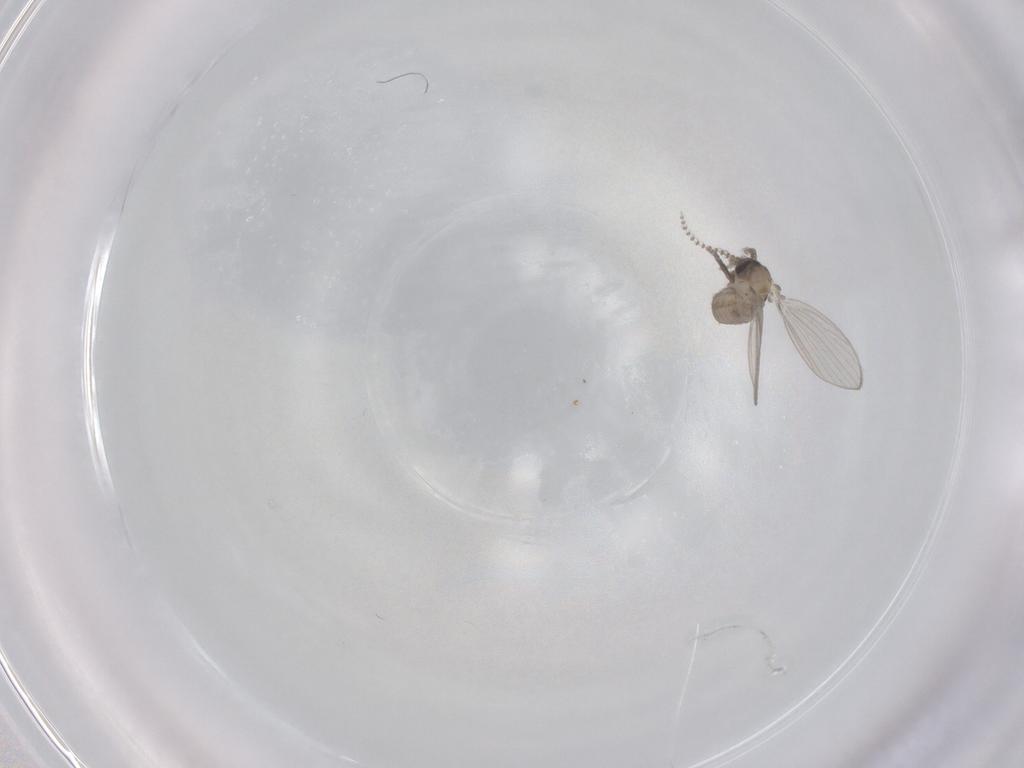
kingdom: Animalia
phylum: Arthropoda
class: Insecta
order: Diptera
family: Psychodidae
